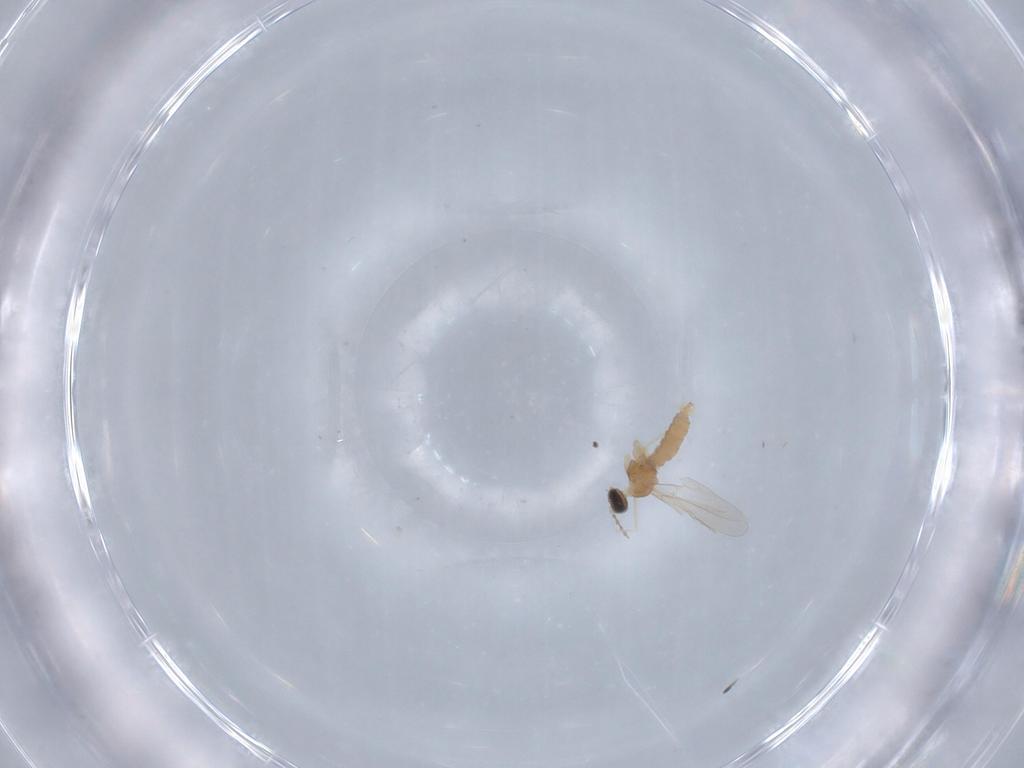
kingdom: Animalia
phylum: Arthropoda
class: Insecta
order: Diptera
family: Cecidomyiidae
